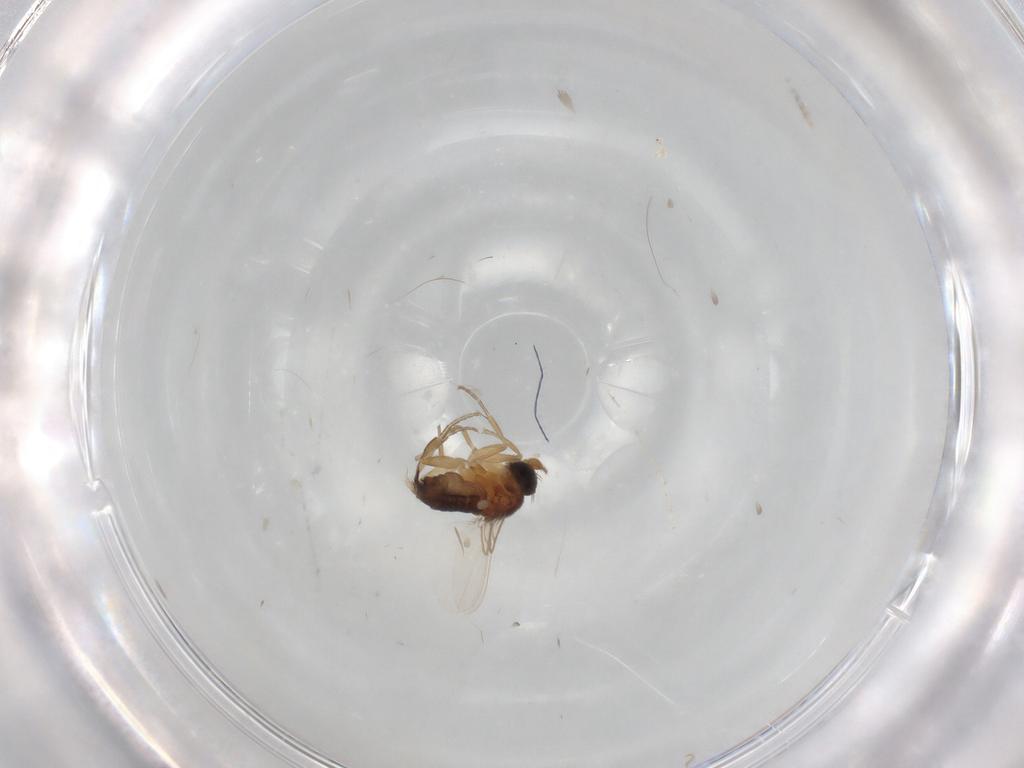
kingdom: Animalia
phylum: Arthropoda
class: Insecta
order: Diptera
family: Phoridae
